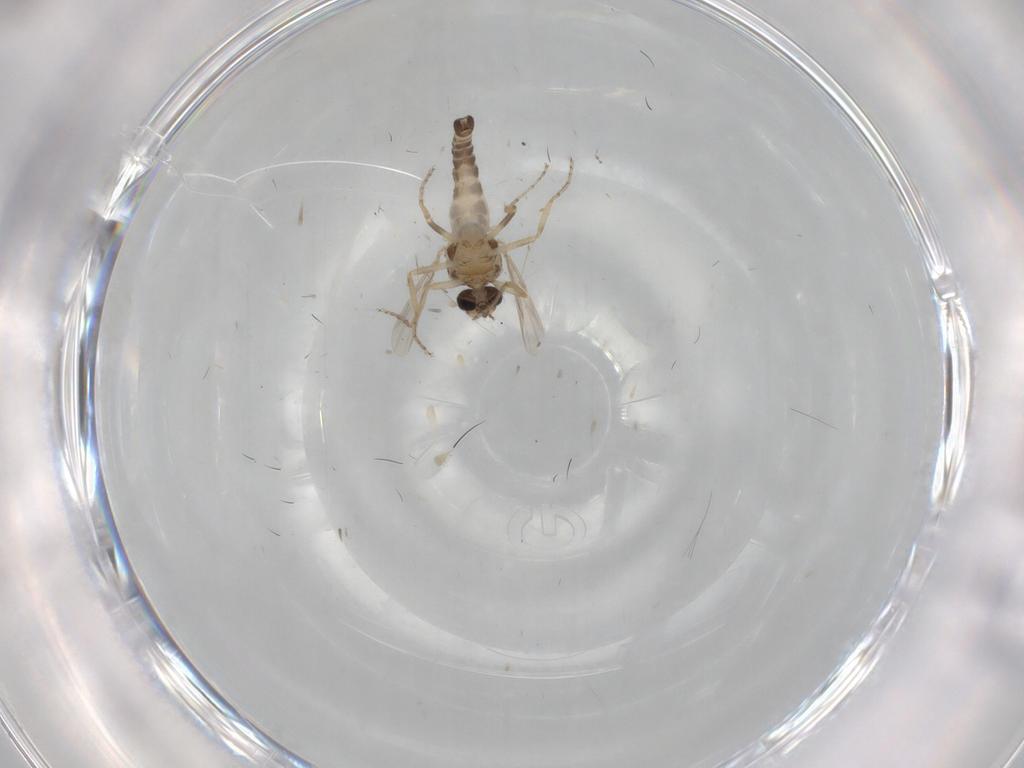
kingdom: Animalia
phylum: Arthropoda
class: Insecta
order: Diptera
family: Ceratopogonidae
